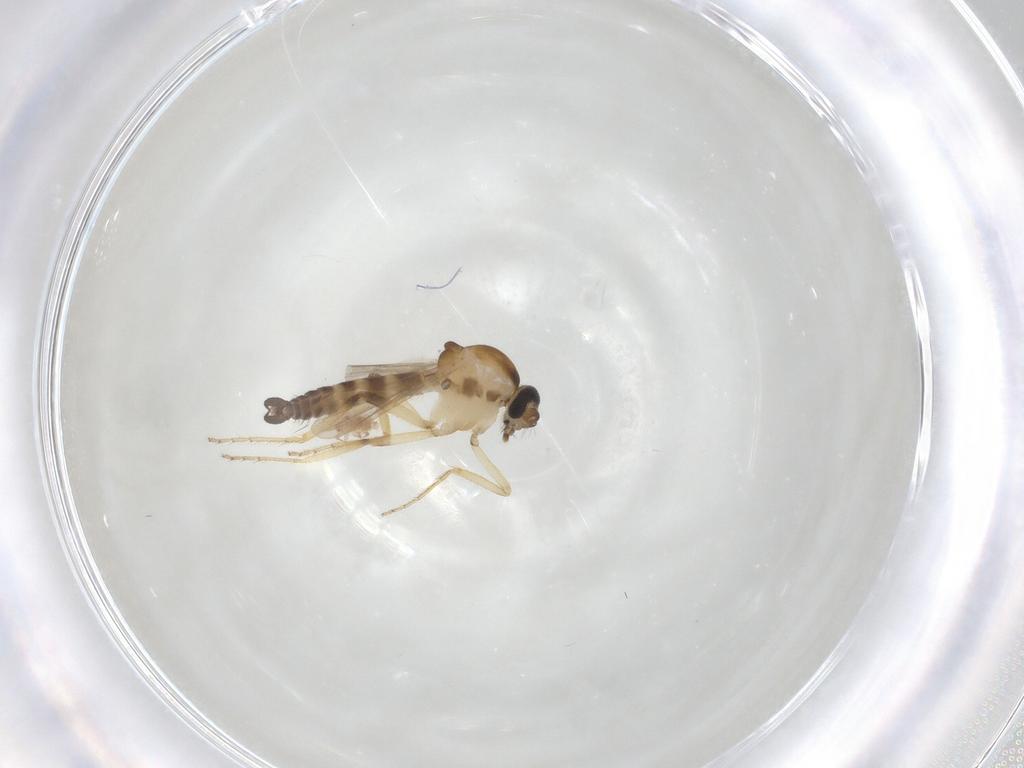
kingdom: Animalia
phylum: Arthropoda
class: Insecta
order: Diptera
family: Ceratopogonidae
